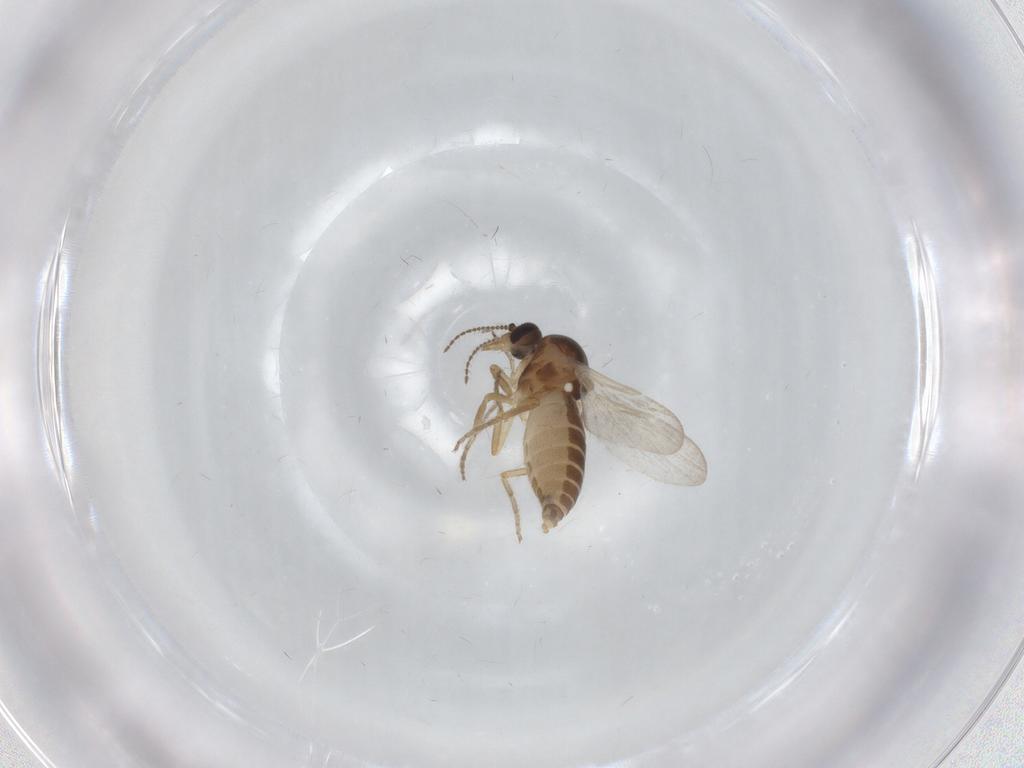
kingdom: Animalia
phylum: Arthropoda
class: Insecta
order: Diptera
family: Ceratopogonidae
